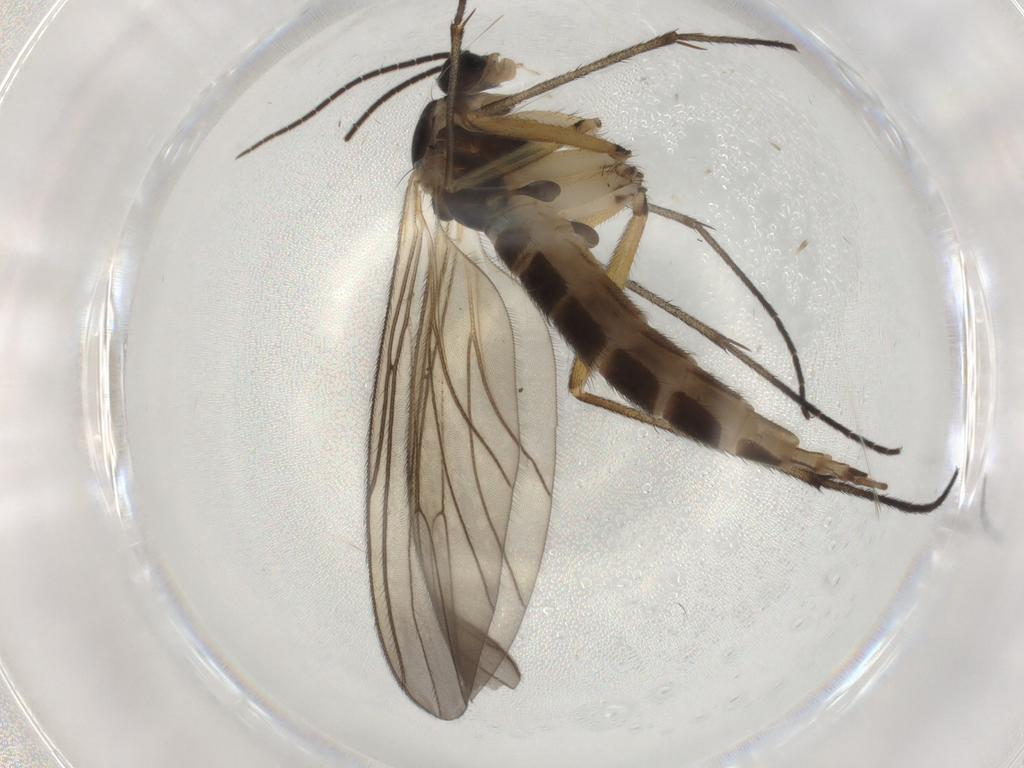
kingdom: Animalia
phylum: Arthropoda
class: Insecta
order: Diptera
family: Sciaridae
